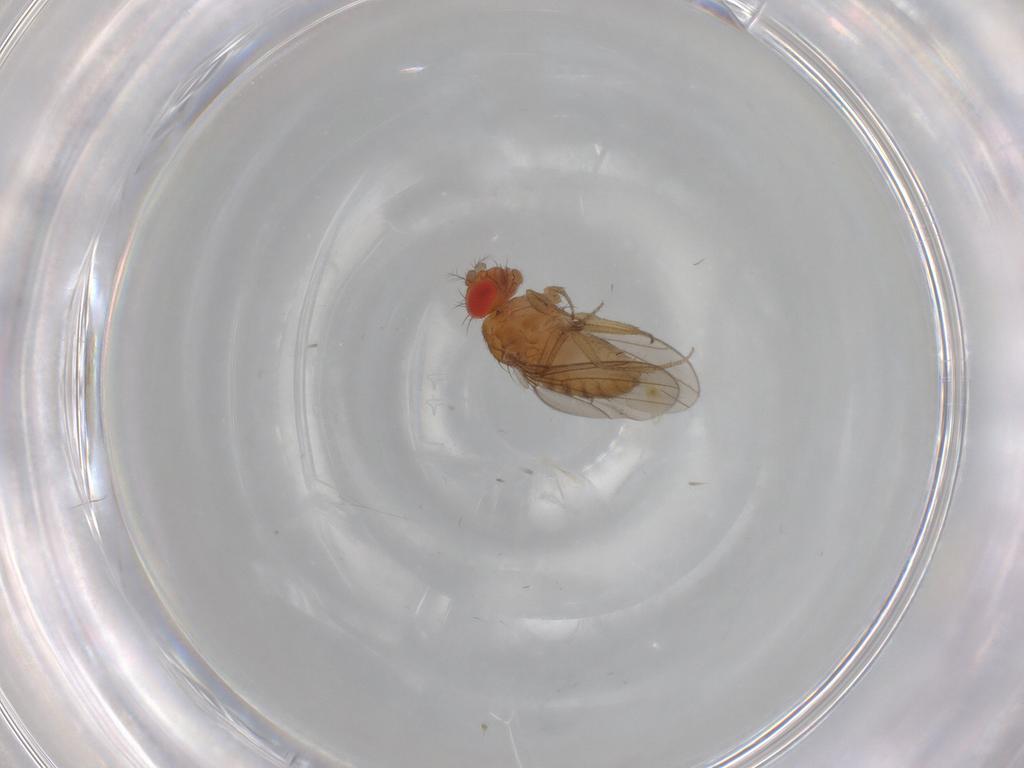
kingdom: Animalia
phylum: Arthropoda
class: Insecta
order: Diptera
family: Drosophilidae
